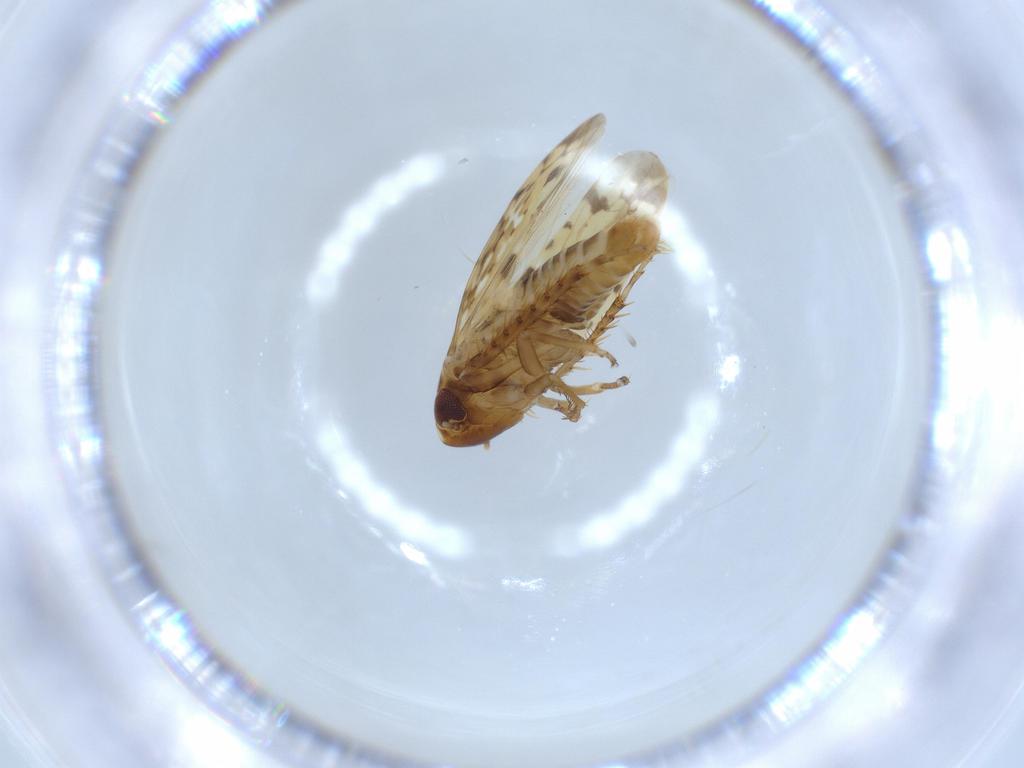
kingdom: Animalia
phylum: Arthropoda
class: Insecta
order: Hemiptera
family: Cicadellidae
